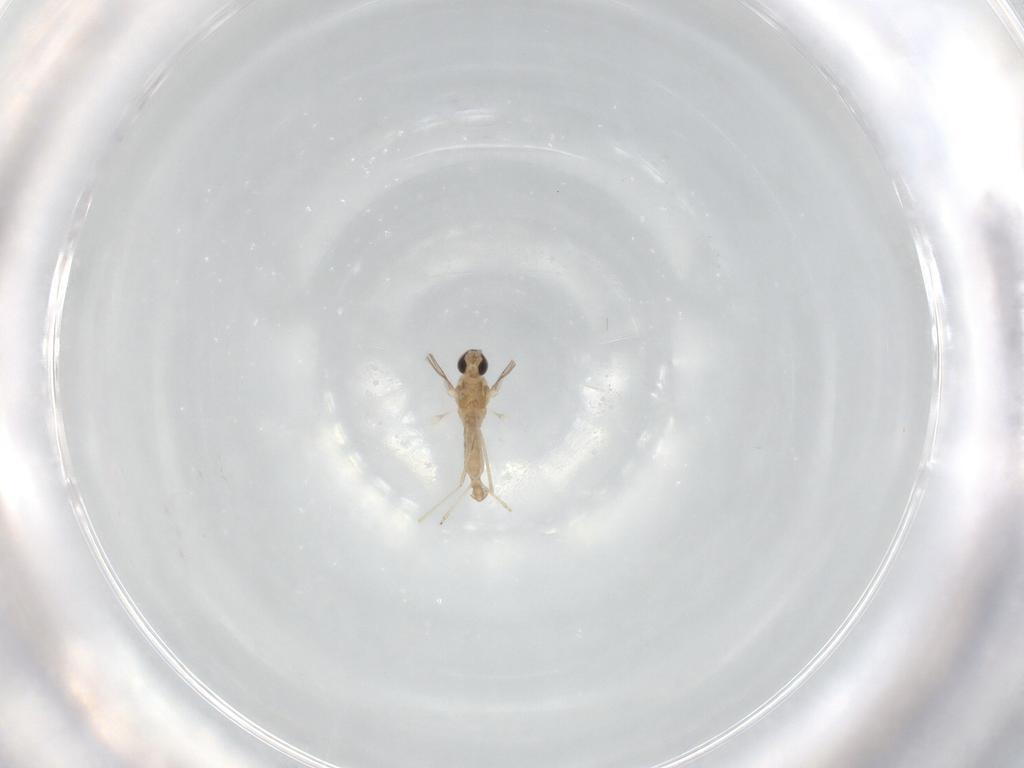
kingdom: Animalia
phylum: Arthropoda
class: Insecta
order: Diptera
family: Cecidomyiidae
